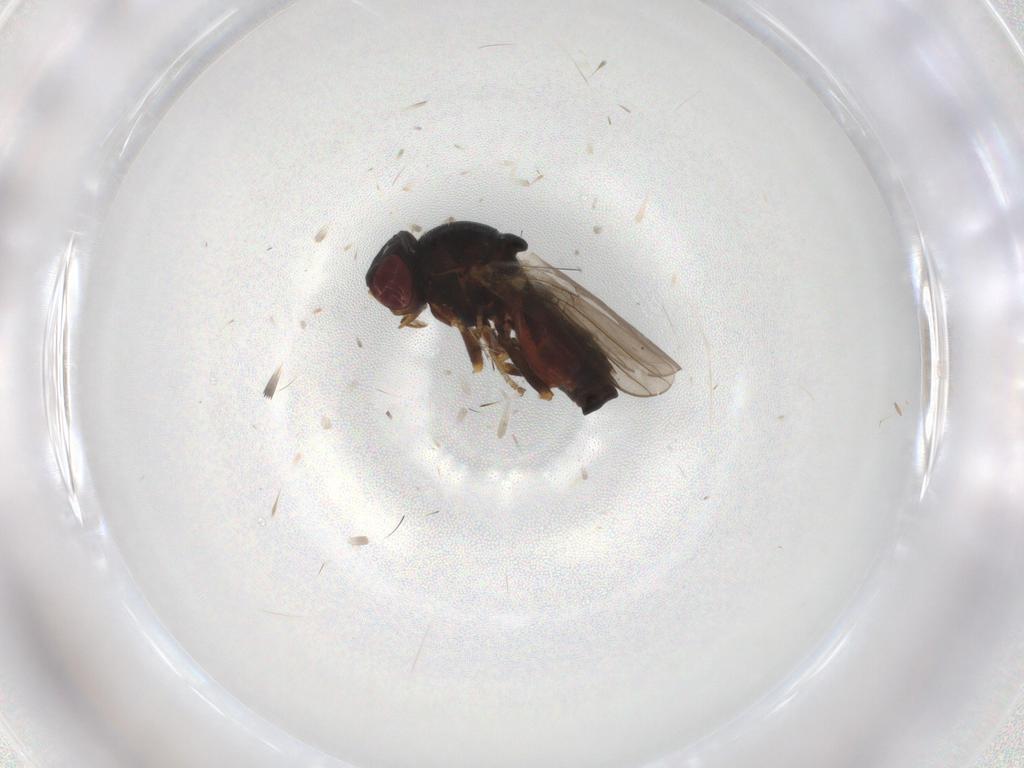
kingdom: Animalia
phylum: Arthropoda
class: Insecta
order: Diptera
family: Chloropidae
